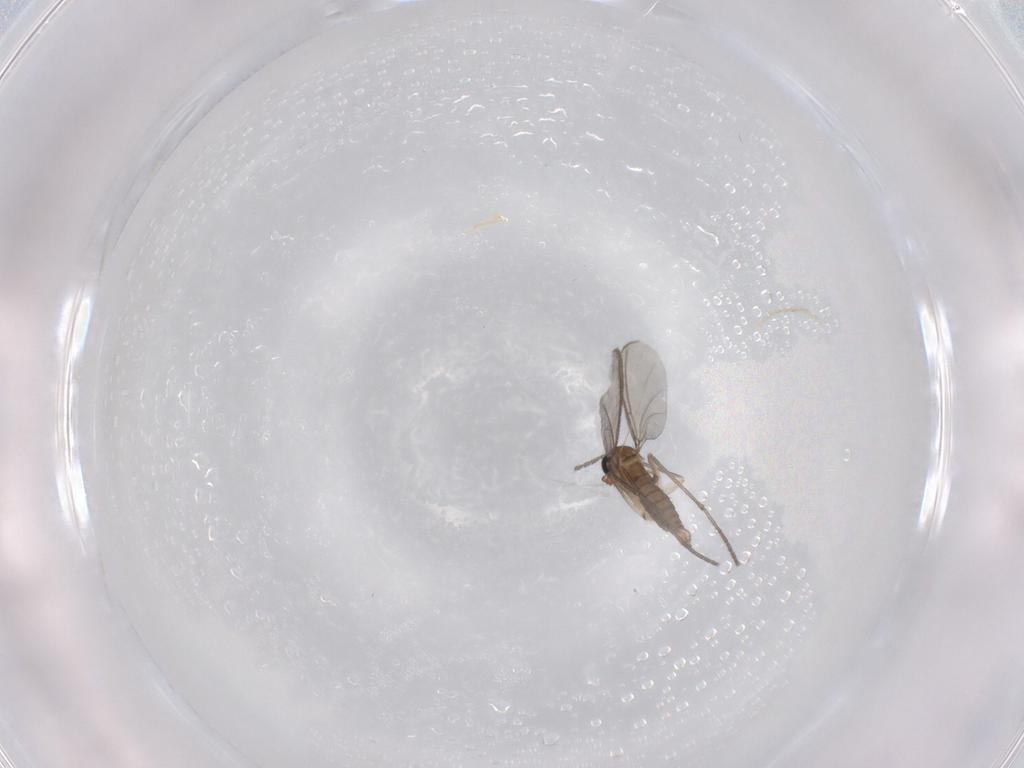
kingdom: Animalia
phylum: Arthropoda
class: Insecta
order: Diptera
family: Sciaridae
